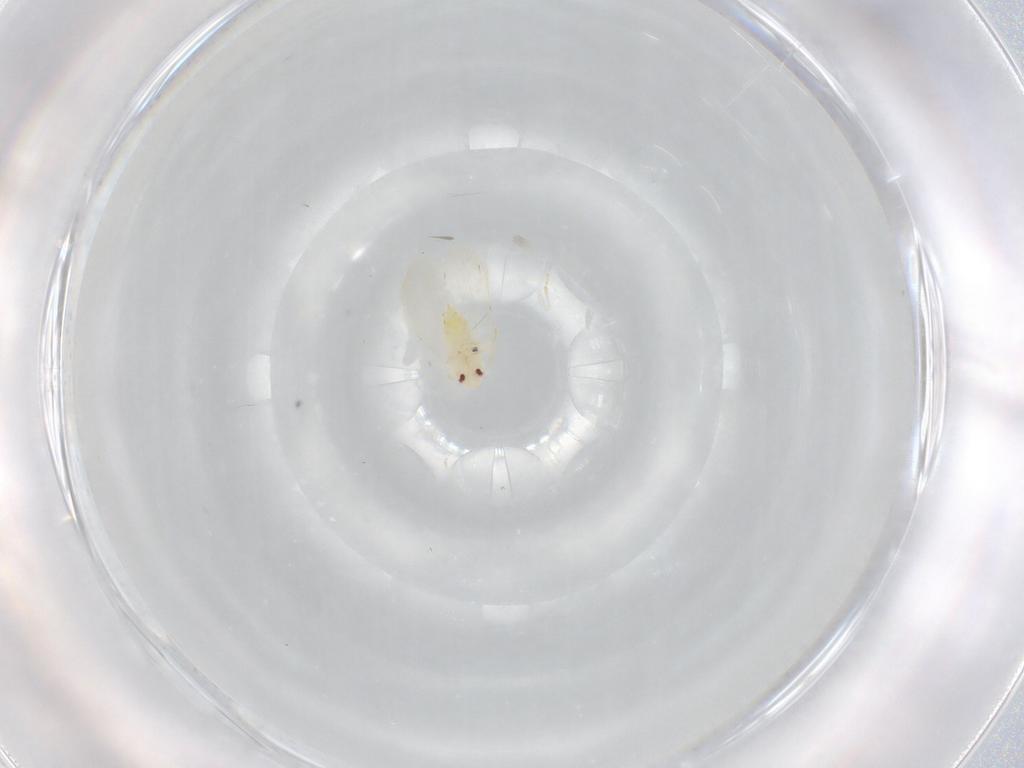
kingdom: Animalia
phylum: Arthropoda
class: Insecta
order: Hemiptera
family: Aleyrodidae
